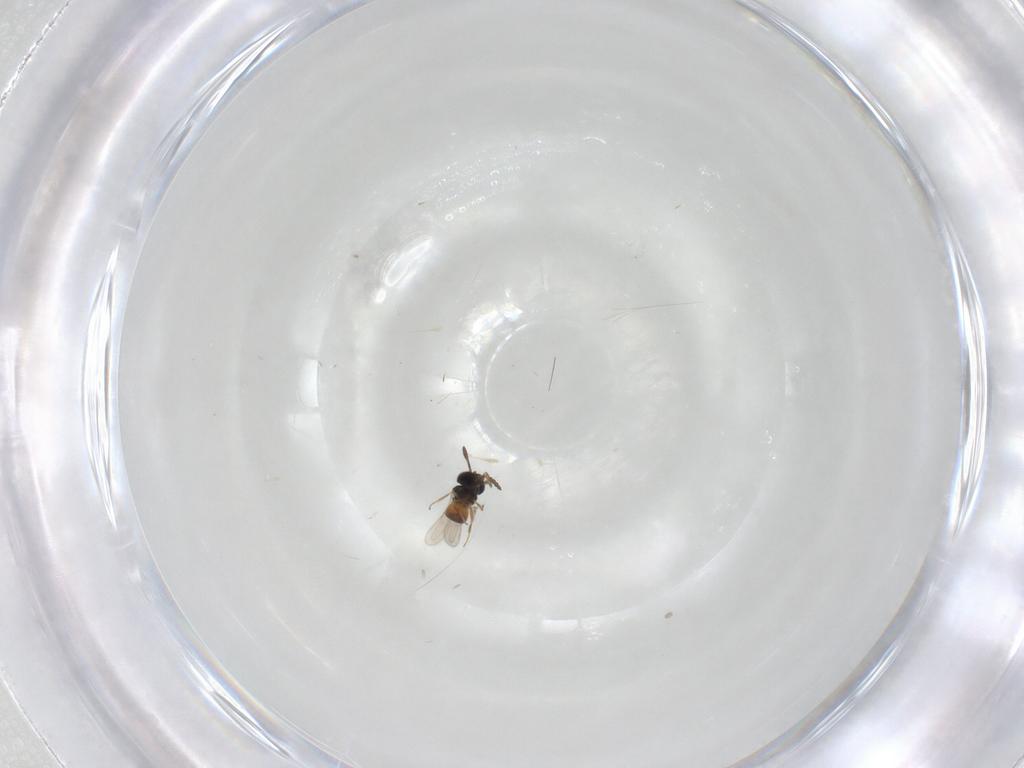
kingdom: Animalia
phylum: Arthropoda
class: Insecta
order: Hymenoptera
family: Scelionidae
